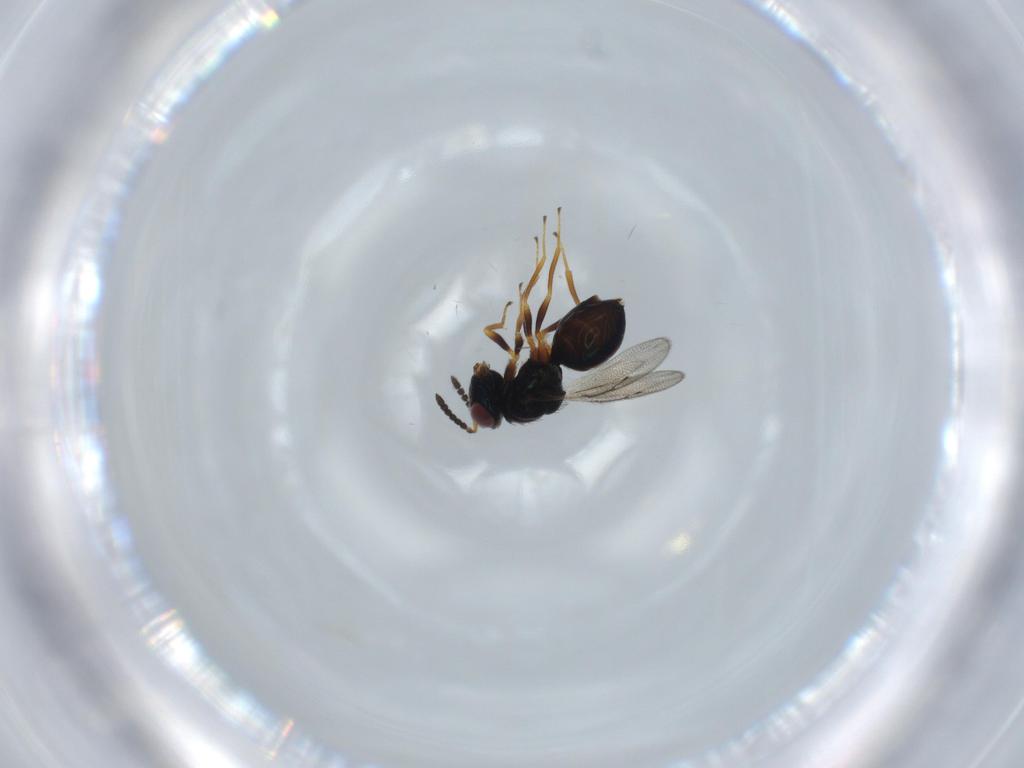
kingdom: Animalia
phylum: Arthropoda
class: Insecta
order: Hymenoptera
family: Pteromalidae
